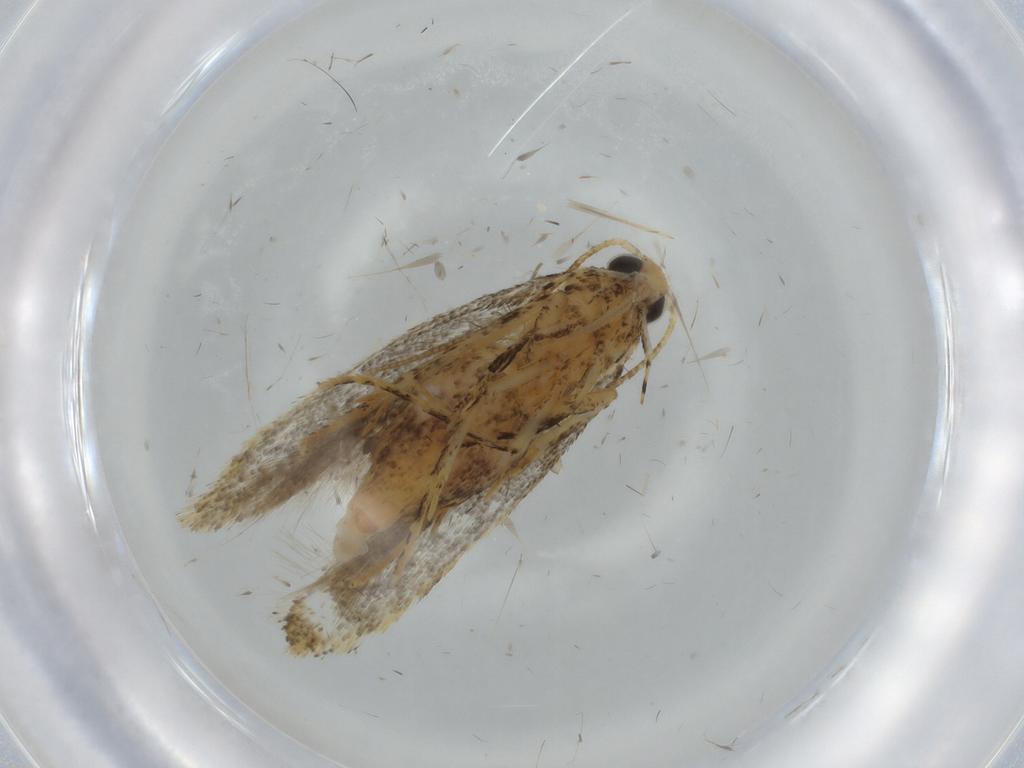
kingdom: Animalia
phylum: Arthropoda
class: Insecta
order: Lepidoptera
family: Gelechiidae
